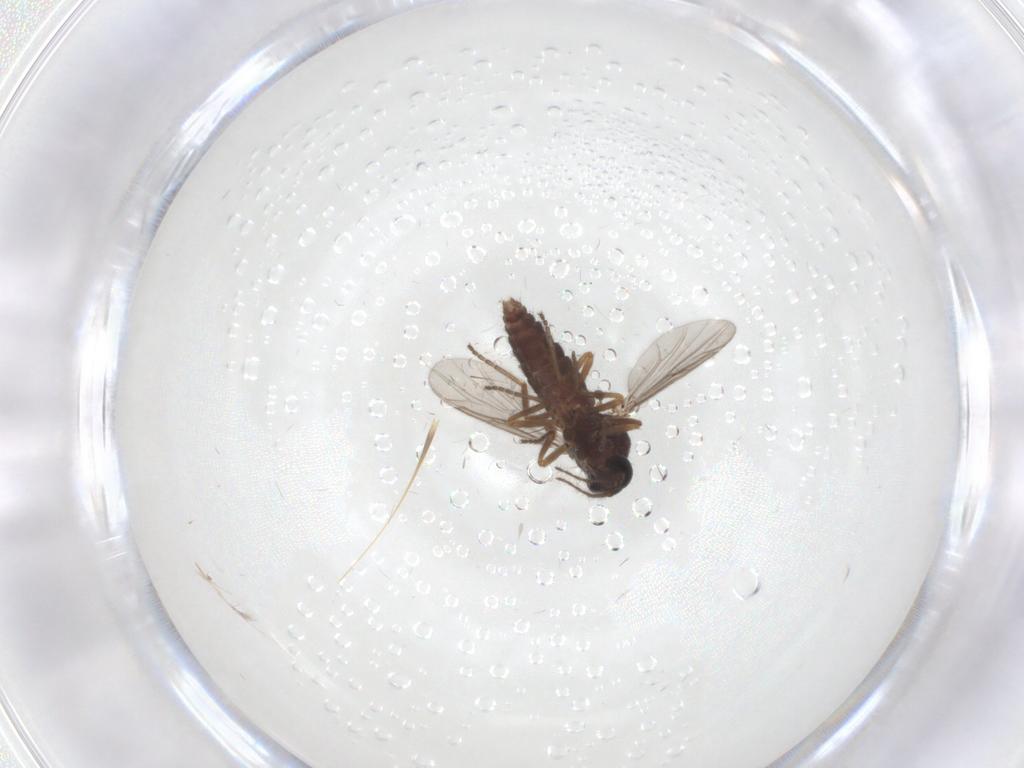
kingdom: Animalia
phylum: Arthropoda
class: Insecta
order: Diptera
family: Ceratopogonidae
